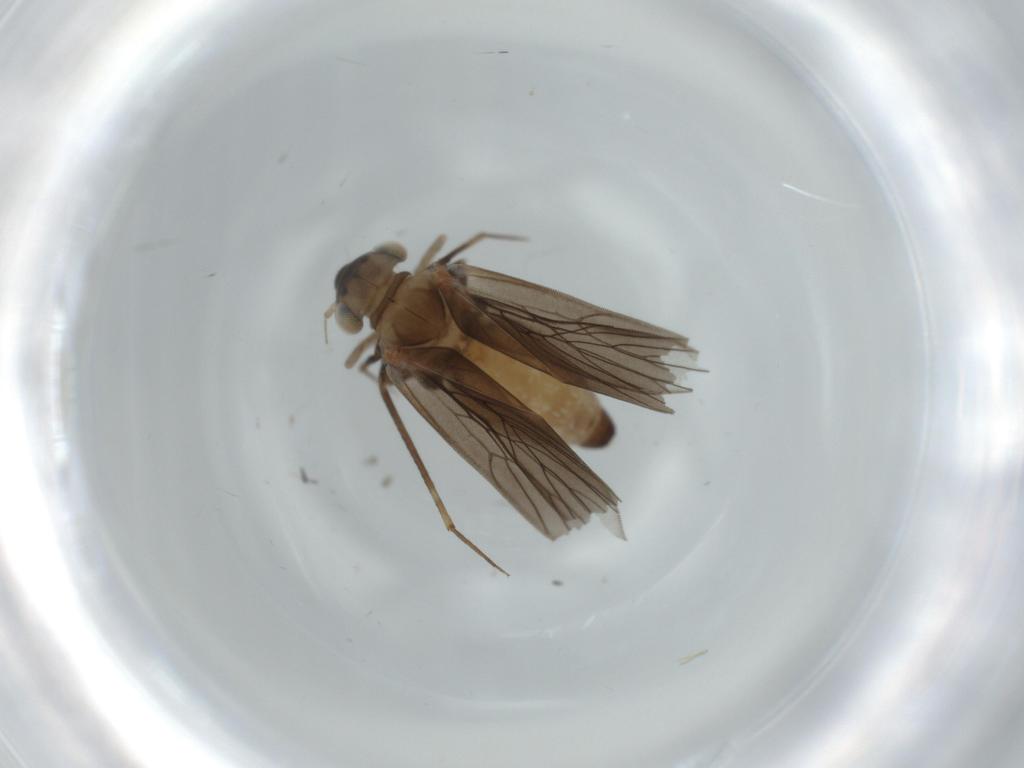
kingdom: Animalia
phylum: Arthropoda
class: Insecta
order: Psocodea
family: Lepidopsocidae
